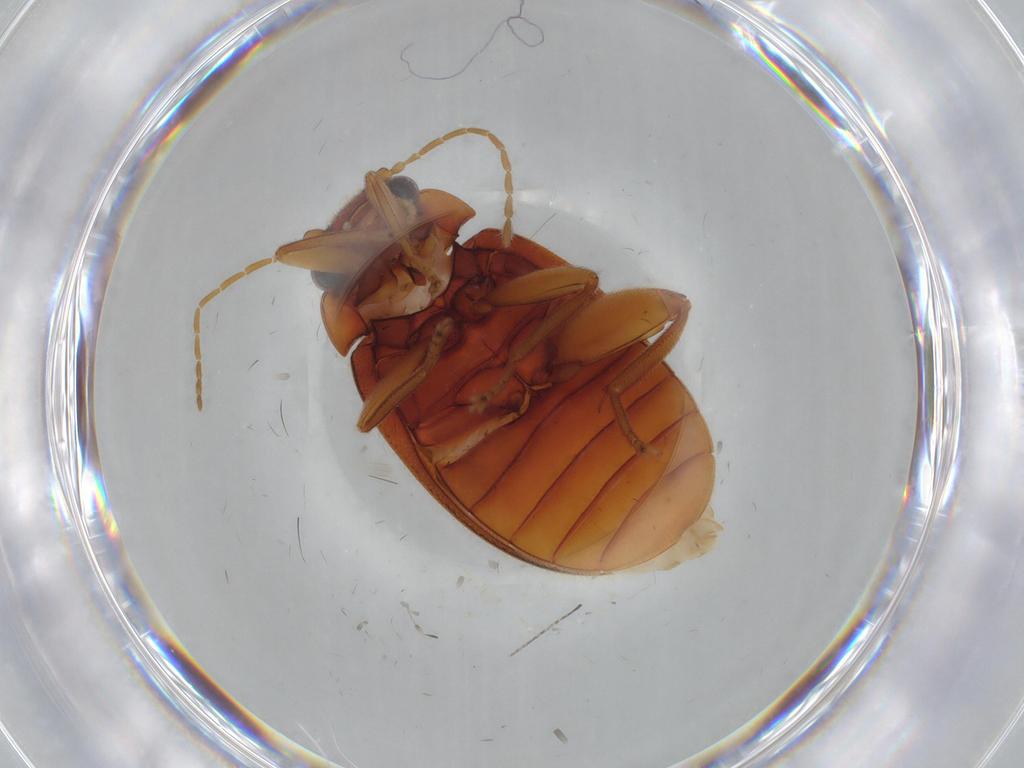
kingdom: Animalia
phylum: Arthropoda
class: Insecta
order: Coleoptera
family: Scirtidae
